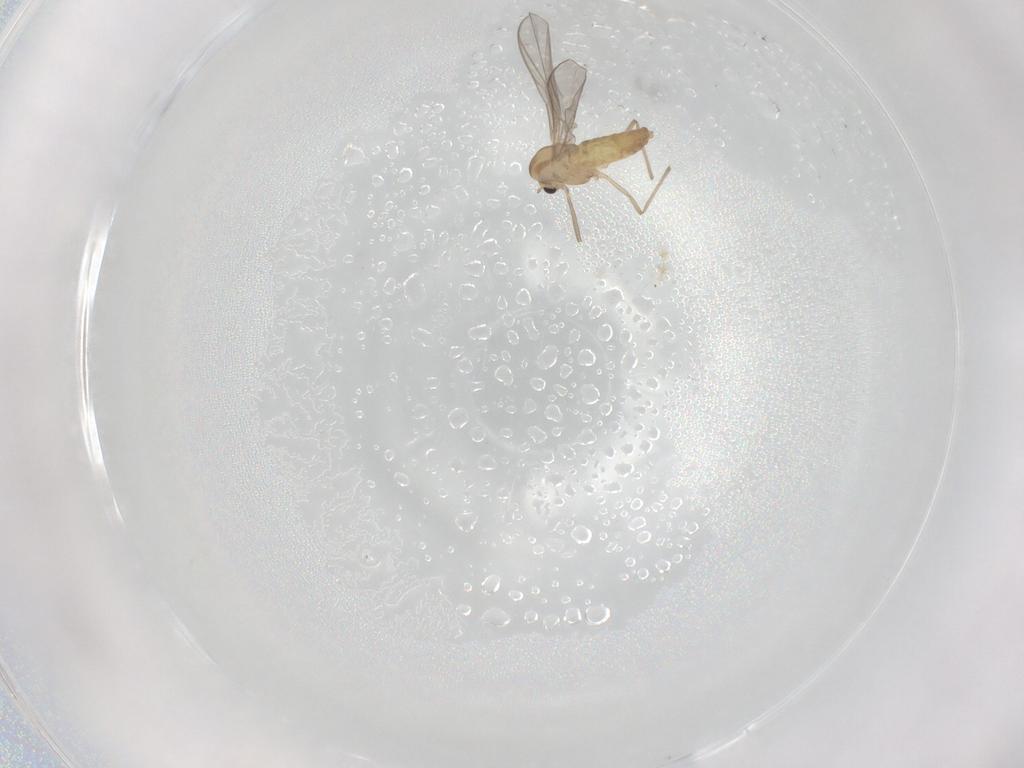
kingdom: Animalia
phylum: Arthropoda
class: Insecta
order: Diptera
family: Chironomidae
